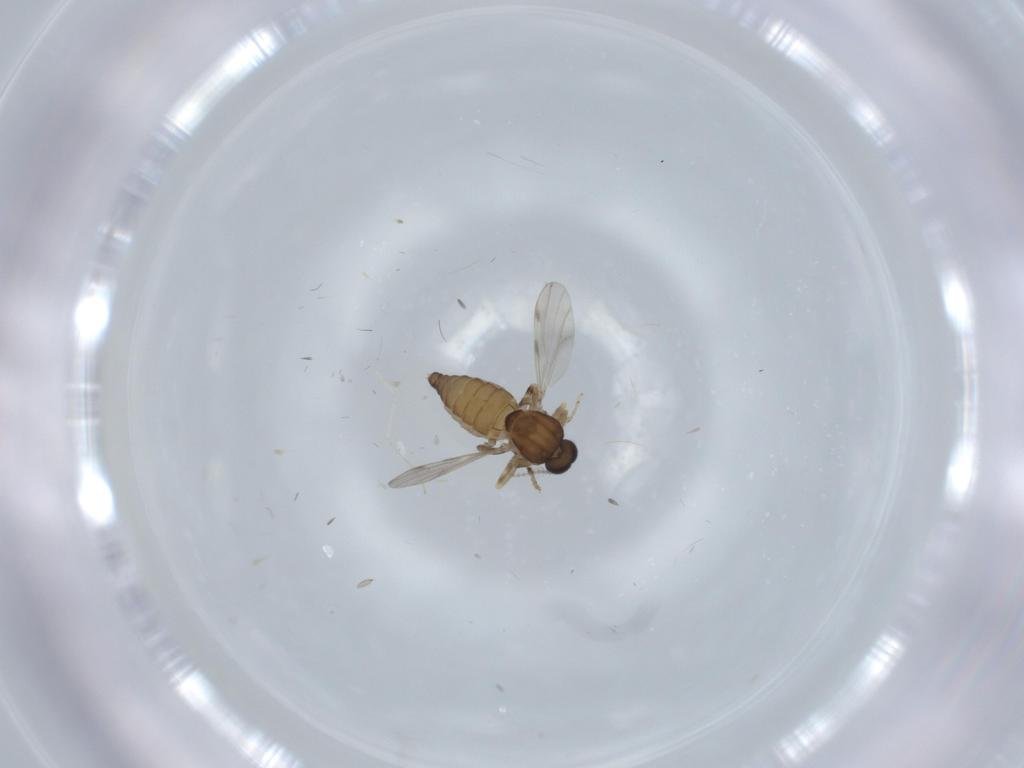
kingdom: Animalia
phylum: Arthropoda
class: Insecta
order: Diptera
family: Ceratopogonidae
